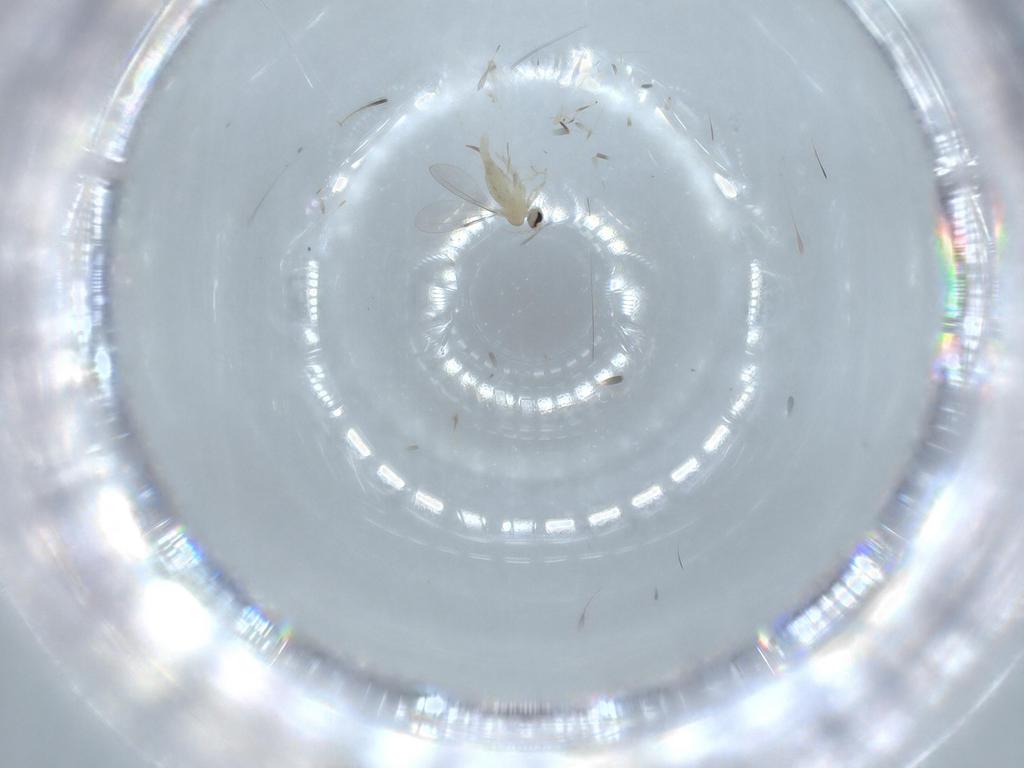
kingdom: Animalia
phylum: Arthropoda
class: Insecta
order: Diptera
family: Cecidomyiidae
